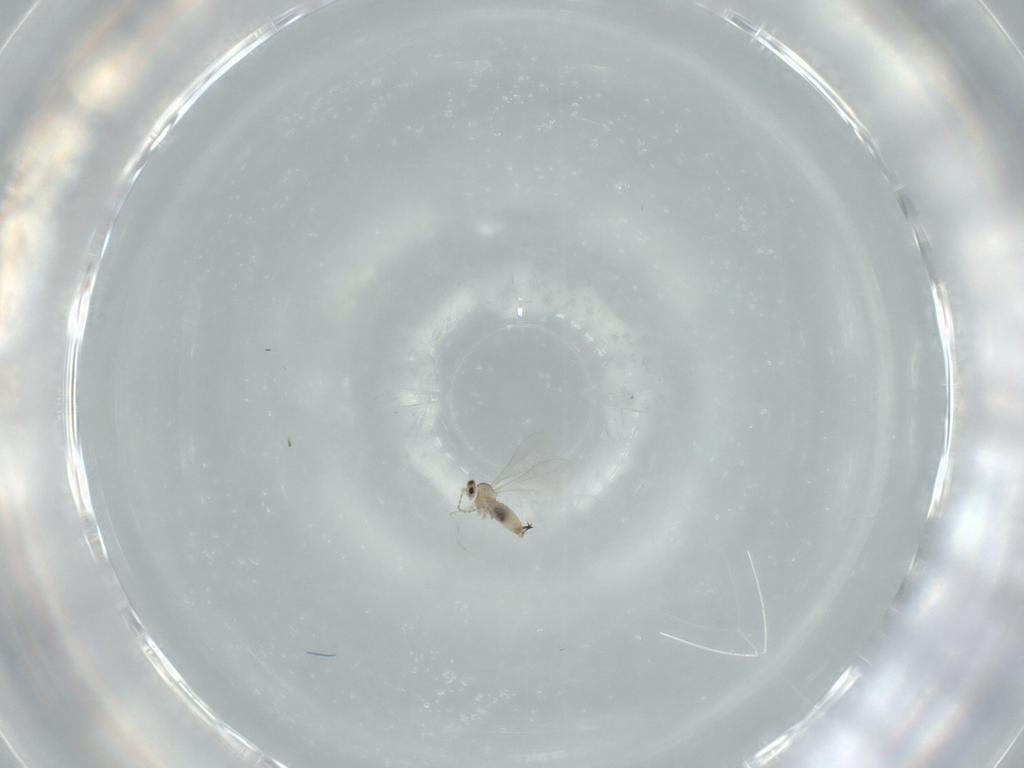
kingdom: Animalia
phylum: Arthropoda
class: Insecta
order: Diptera
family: Cecidomyiidae
